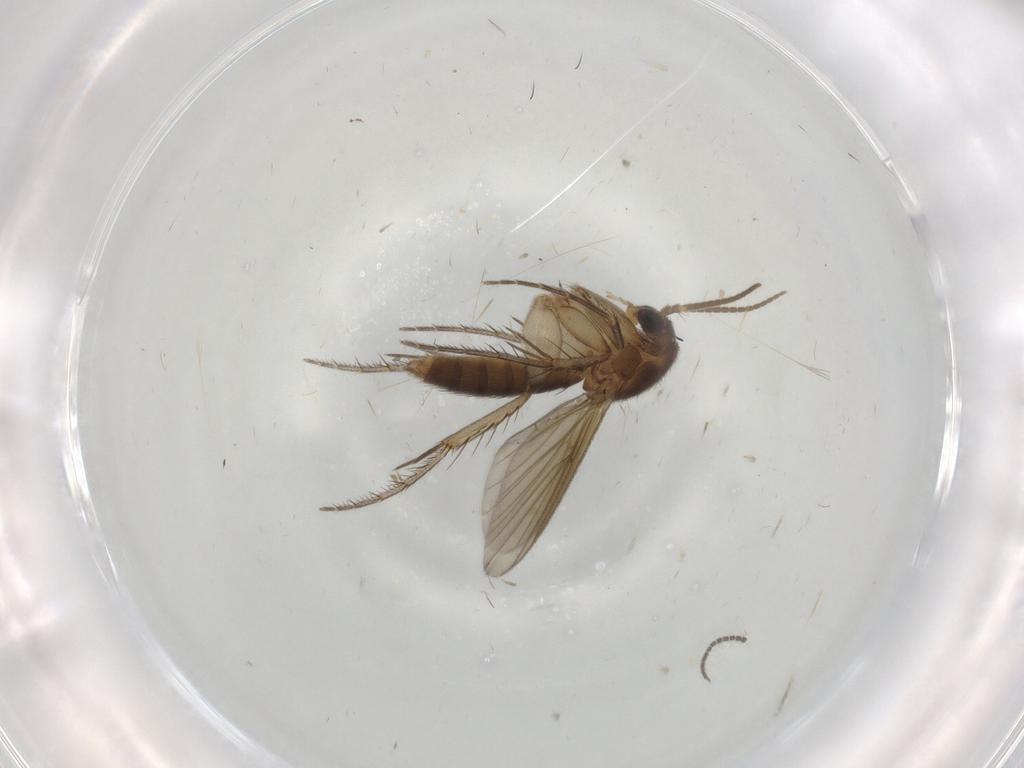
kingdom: Animalia
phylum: Arthropoda
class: Insecta
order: Diptera
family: Mycetophilidae
